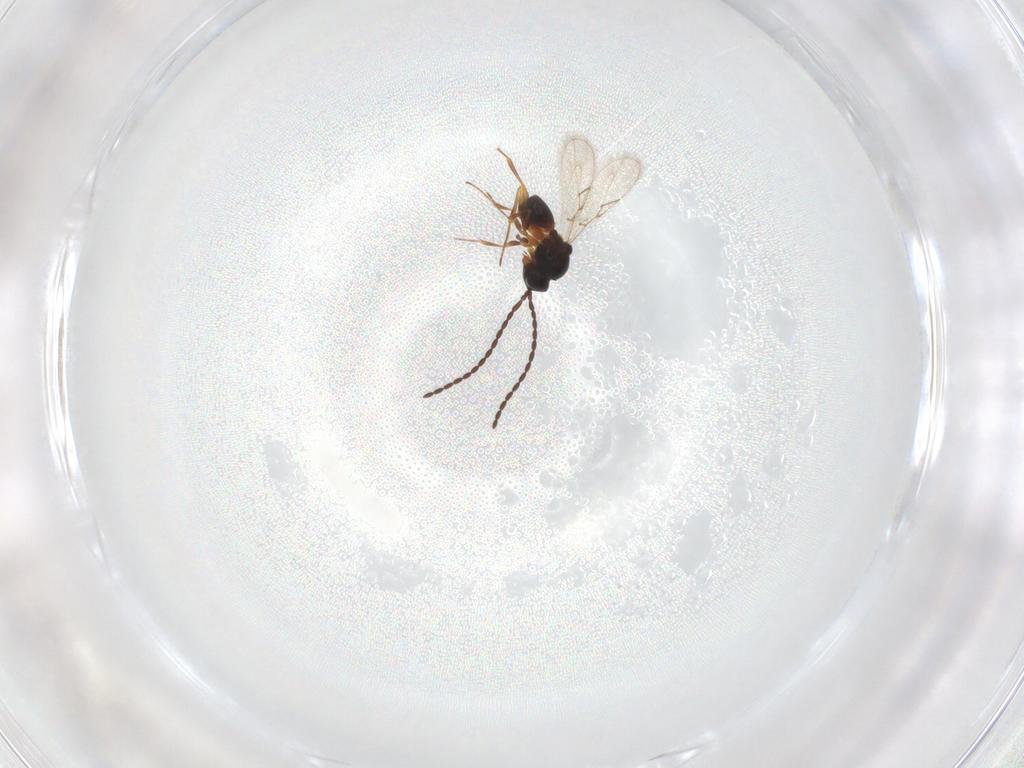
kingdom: Animalia
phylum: Arthropoda
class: Insecta
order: Hymenoptera
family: Figitidae
